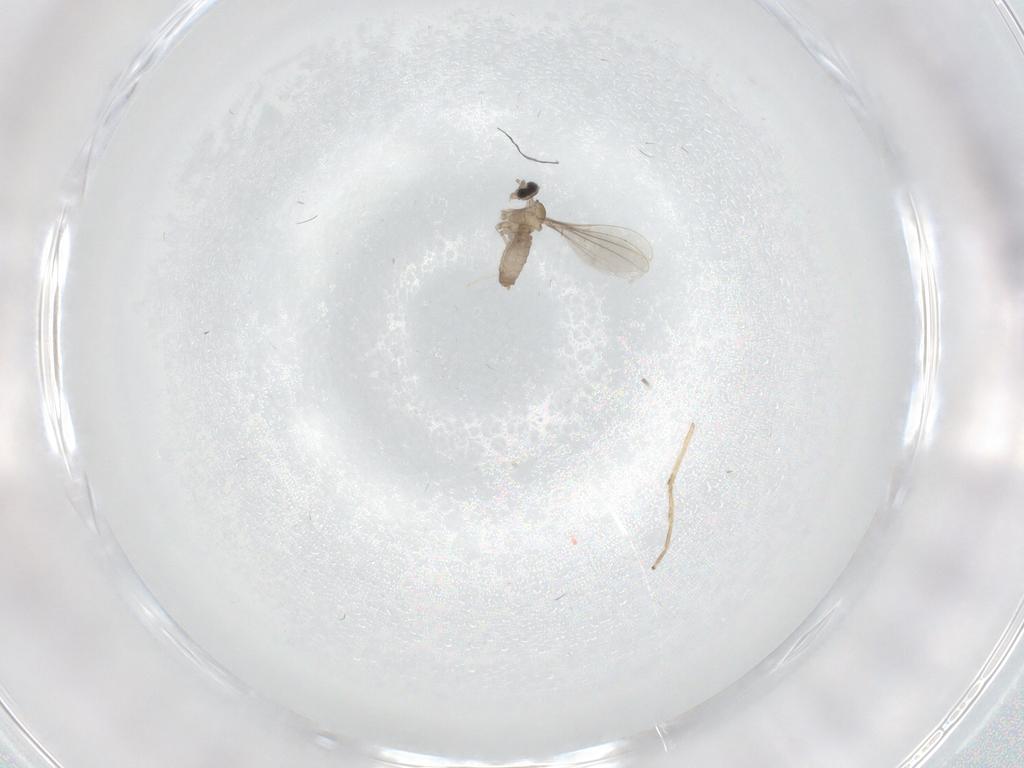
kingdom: Animalia
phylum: Arthropoda
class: Insecta
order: Diptera
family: Cecidomyiidae
